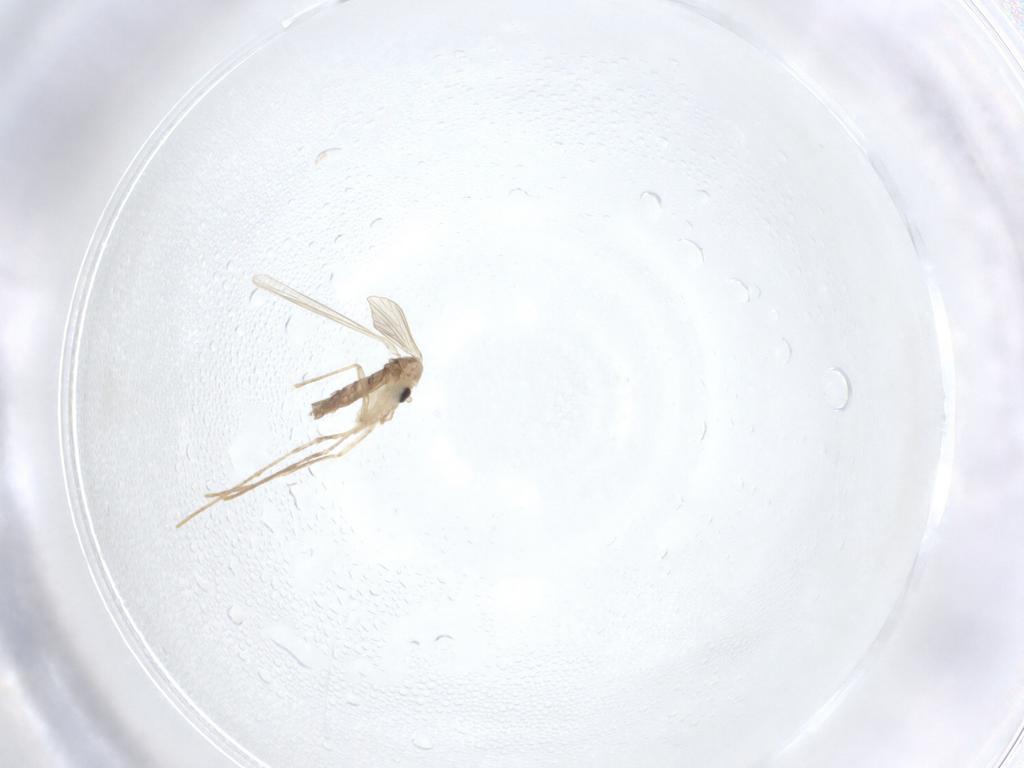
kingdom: Animalia
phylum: Arthropoda
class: Insecta
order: Diptera
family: Psychodidae
